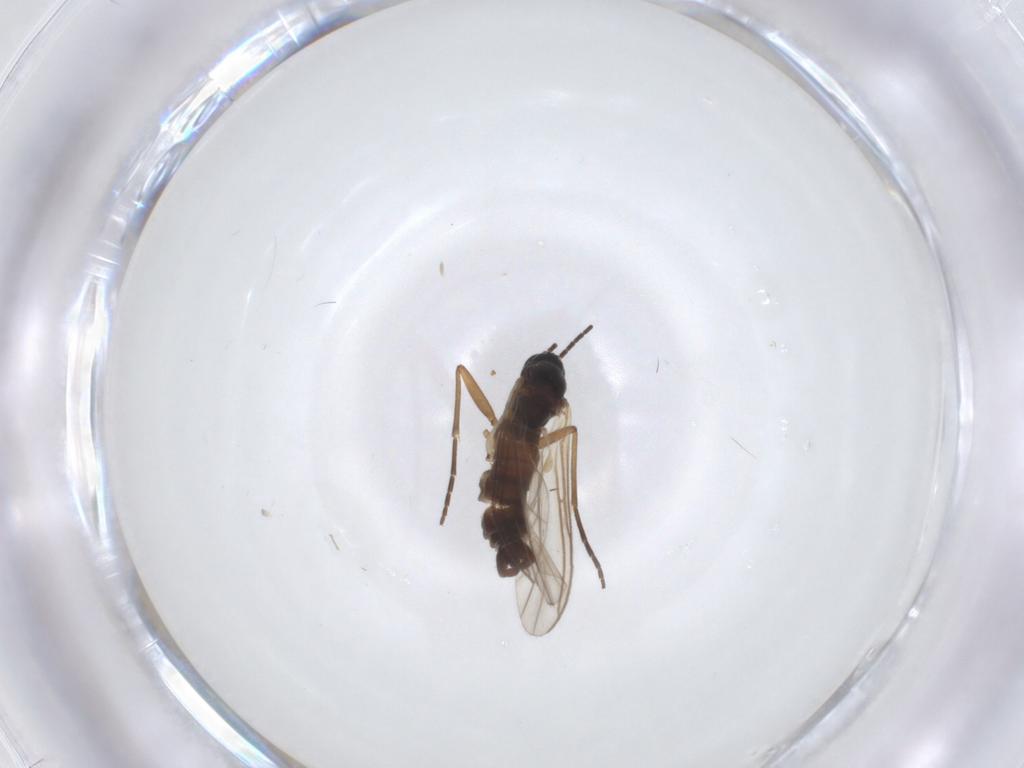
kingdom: Animalia
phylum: Arthropoda
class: Insecta
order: Diptera
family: Sciaridae
